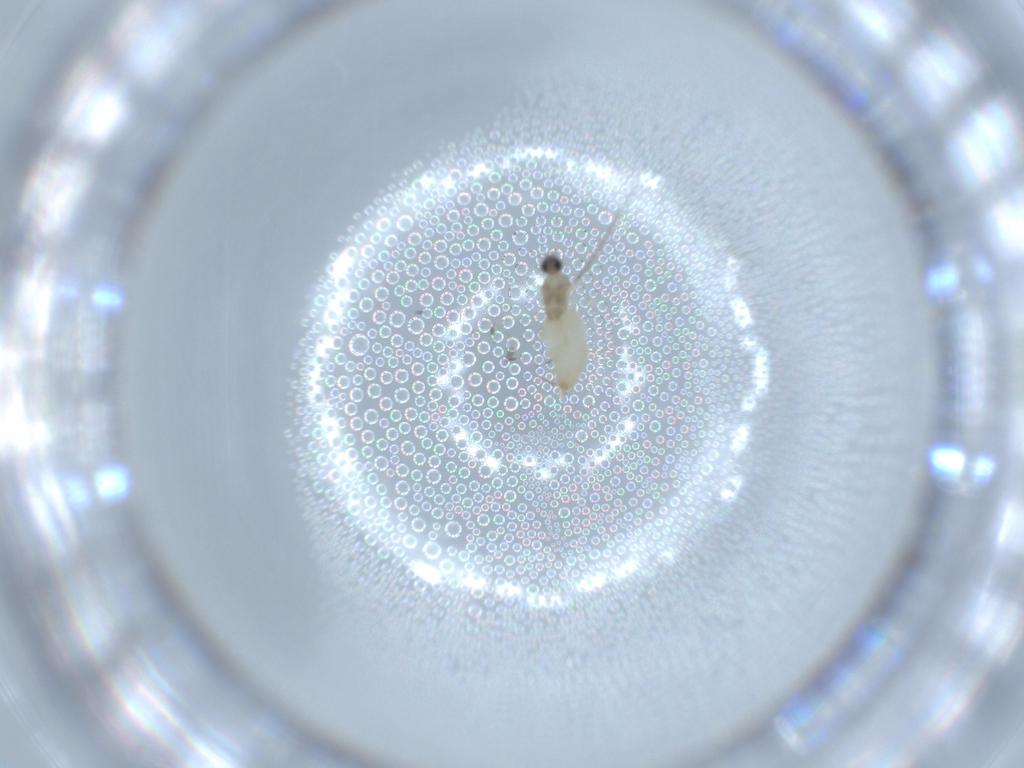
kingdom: Animalia
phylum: Arthropoda
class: Insecta
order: Diptera
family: Cecidomyiidae
